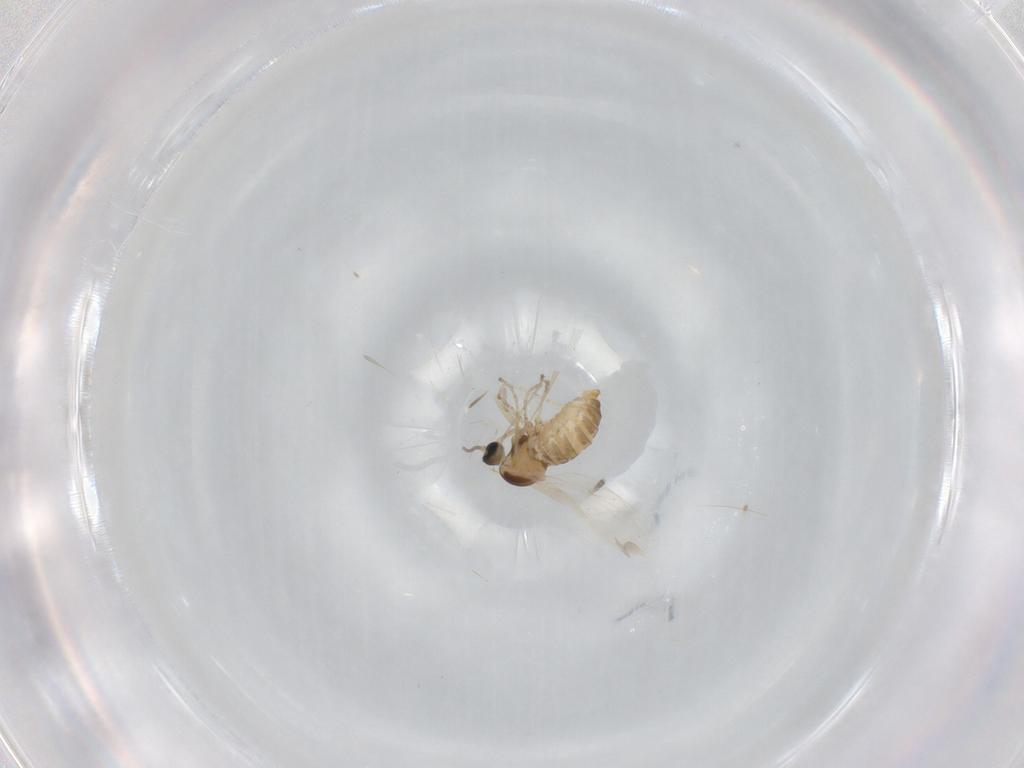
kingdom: Animalia
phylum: Arthropoda
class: Insecta
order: Diptera
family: Cecidomyiidae
